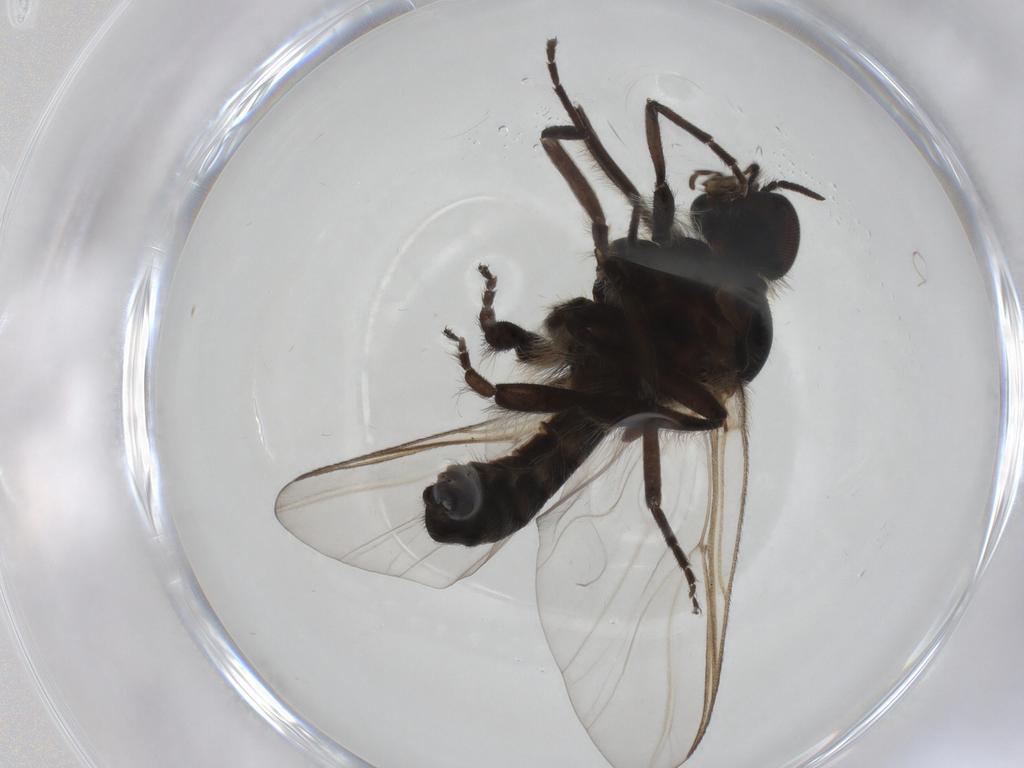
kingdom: Animalia
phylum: Arthropoda
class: Insecta
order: Diptera
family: Simuliidae
